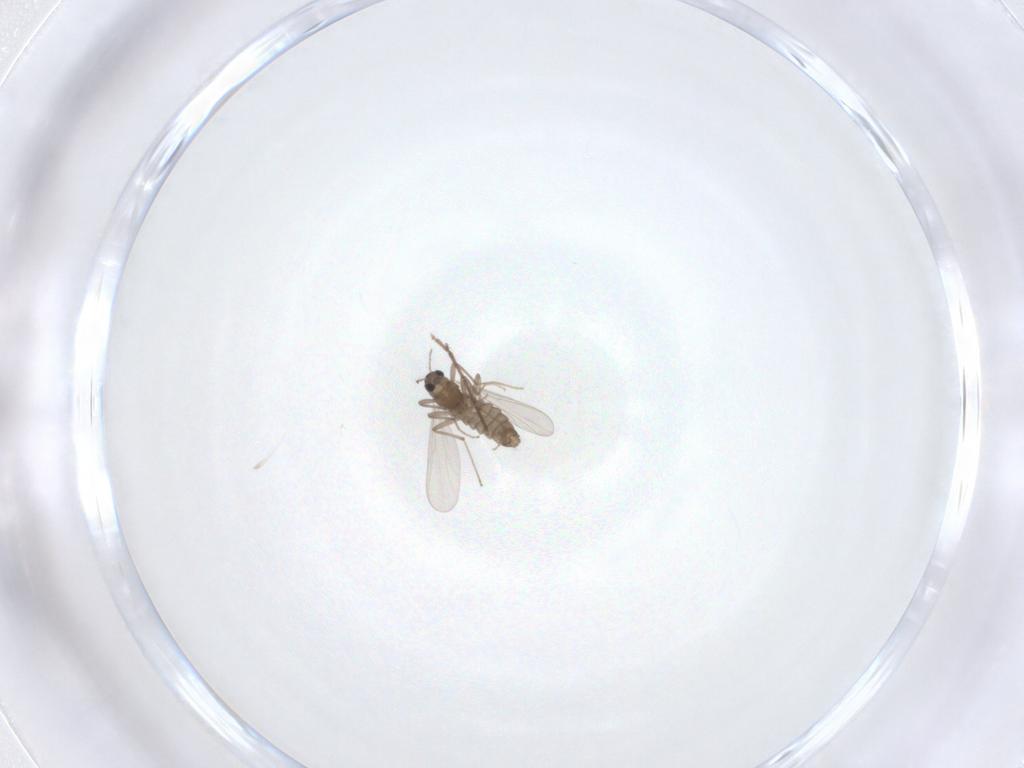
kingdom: Animalia
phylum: Arthropoda
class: Insecta
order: Diptera
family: Chironomidae
